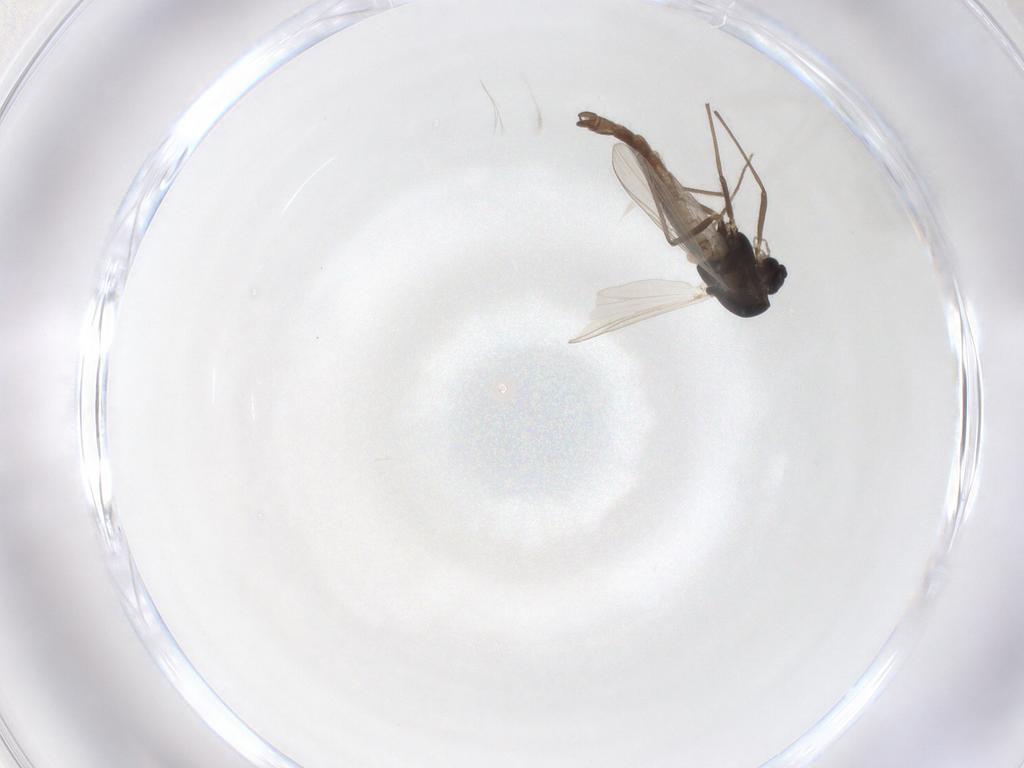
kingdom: Animalia
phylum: Arthropoda
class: Insecta
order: Diptera
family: Chironomidae
